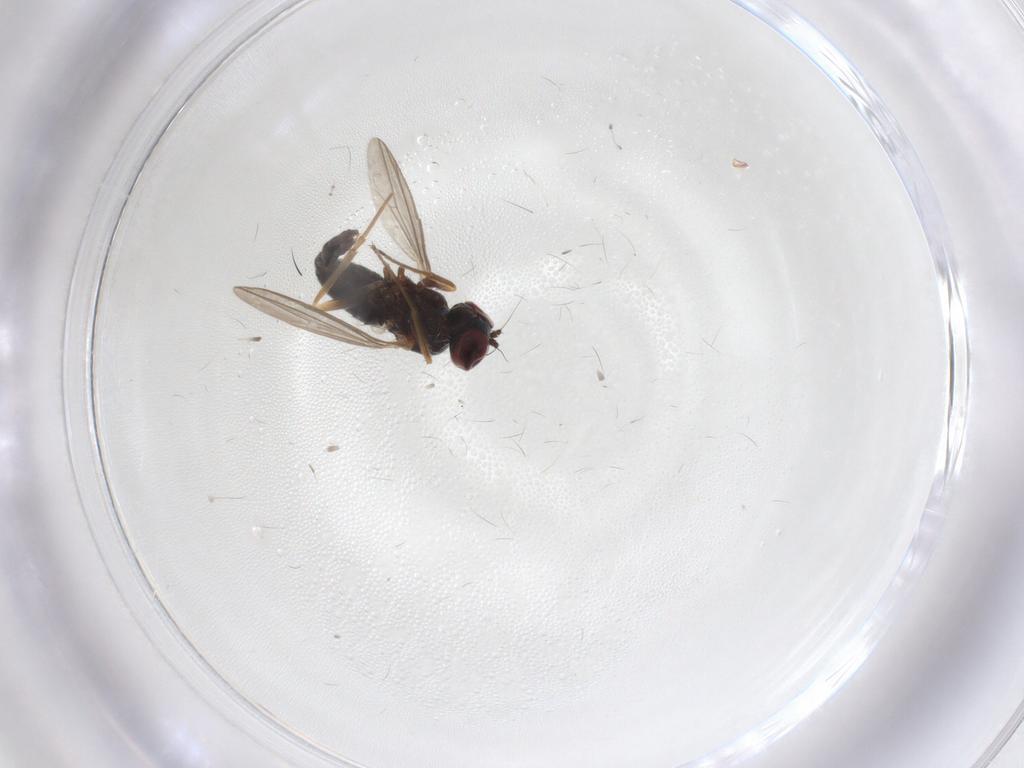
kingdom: Animalia
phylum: Arthropoda
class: Insecta
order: Diptera
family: Dolichopodidae
